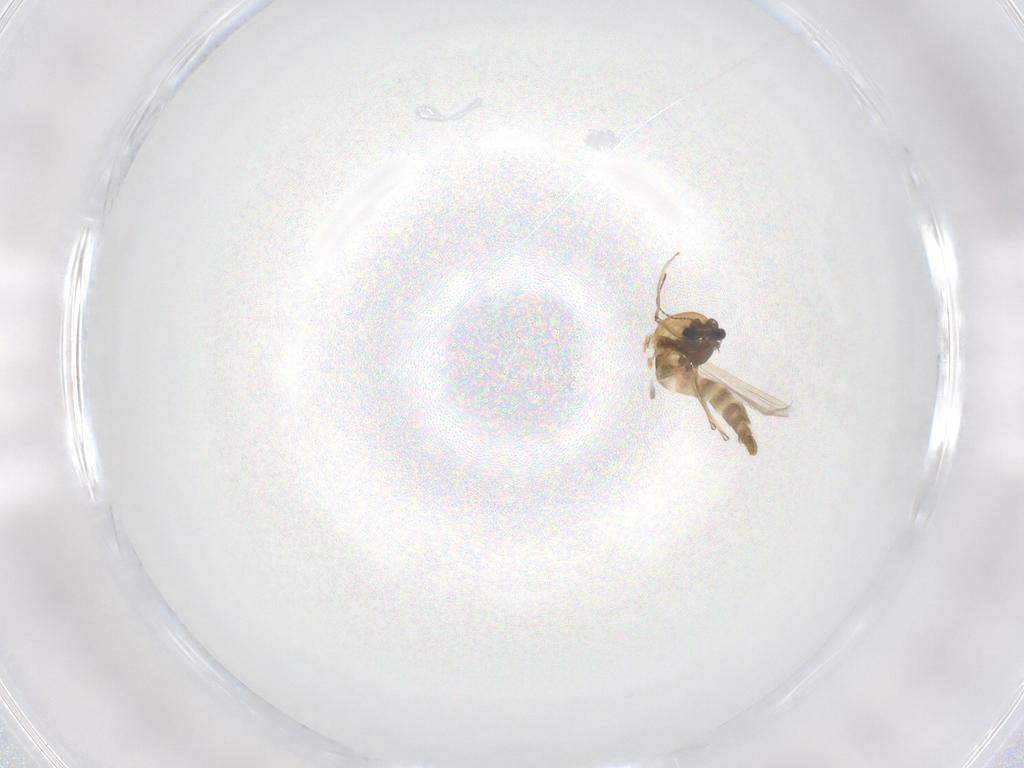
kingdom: Animalia
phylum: Arthropoda
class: Insecta
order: Diptera
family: Chironomidae
